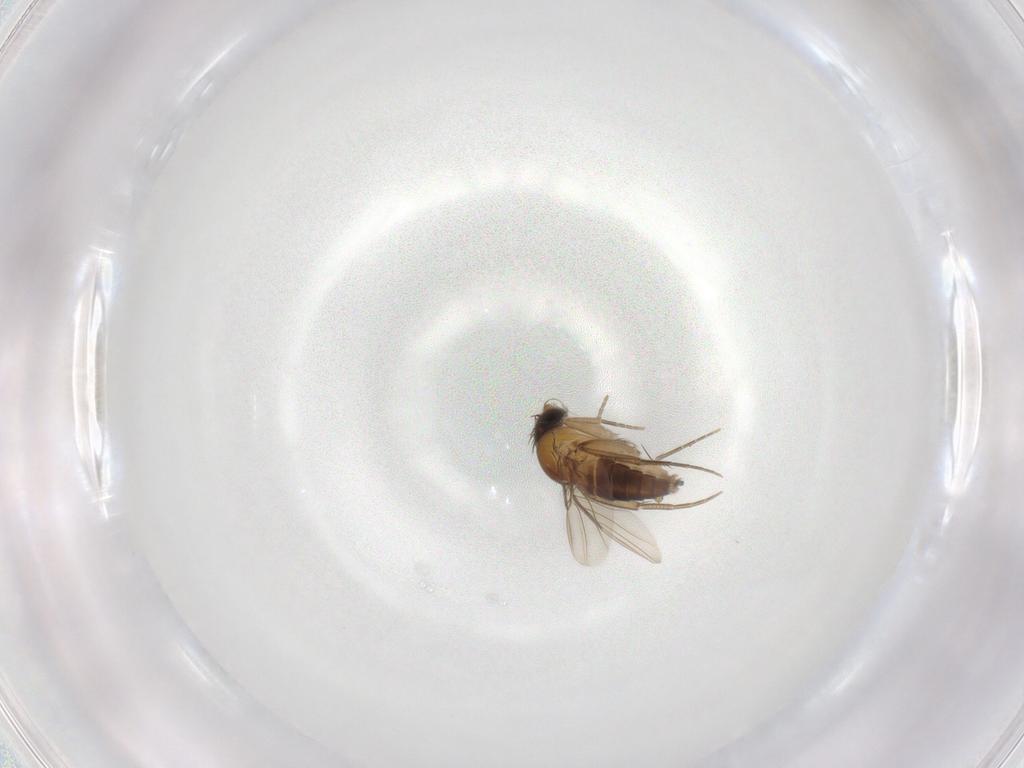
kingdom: Animalia
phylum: Arthropoda
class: Insecta
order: Diptera
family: Phoridae
